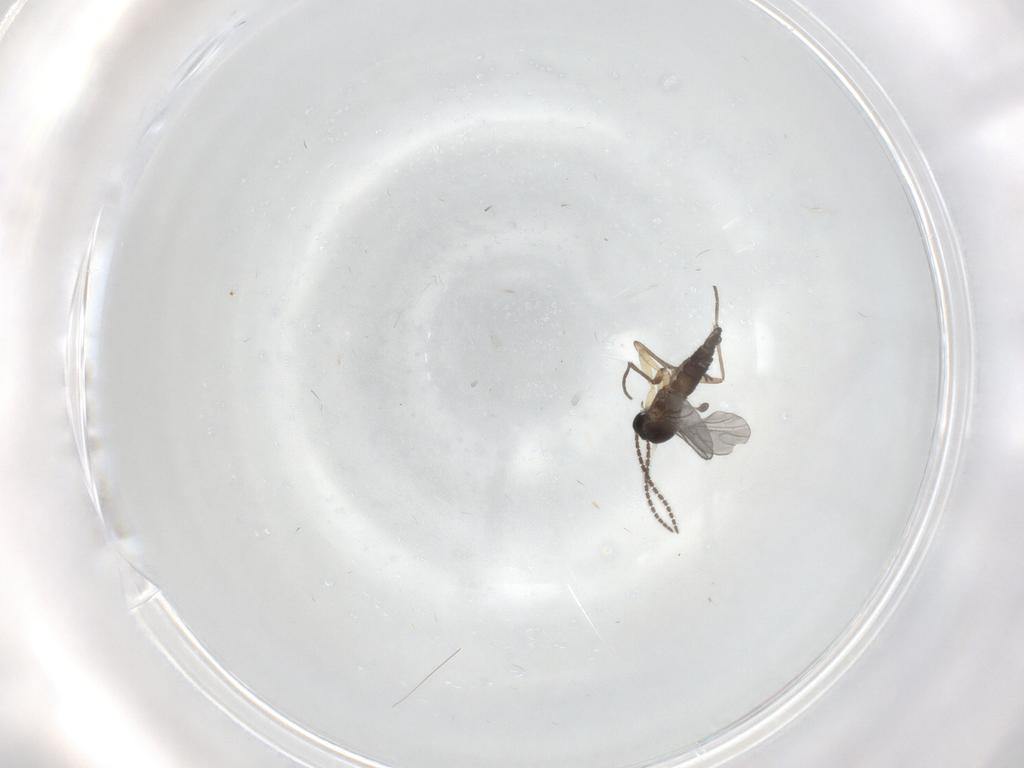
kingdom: Animalia
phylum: Arthropoda
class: Insecta
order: Diptera
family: Sciaridae
